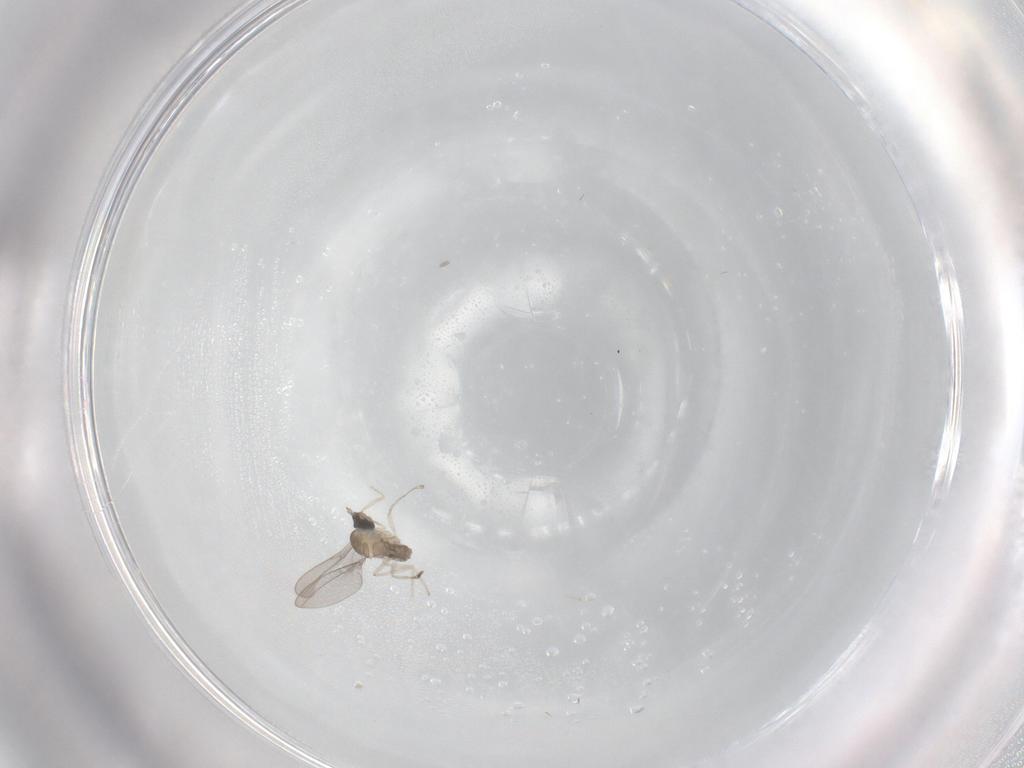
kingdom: Animalia
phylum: Arthropoda
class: Insecta
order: Diptera
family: Cecidomyiidae
